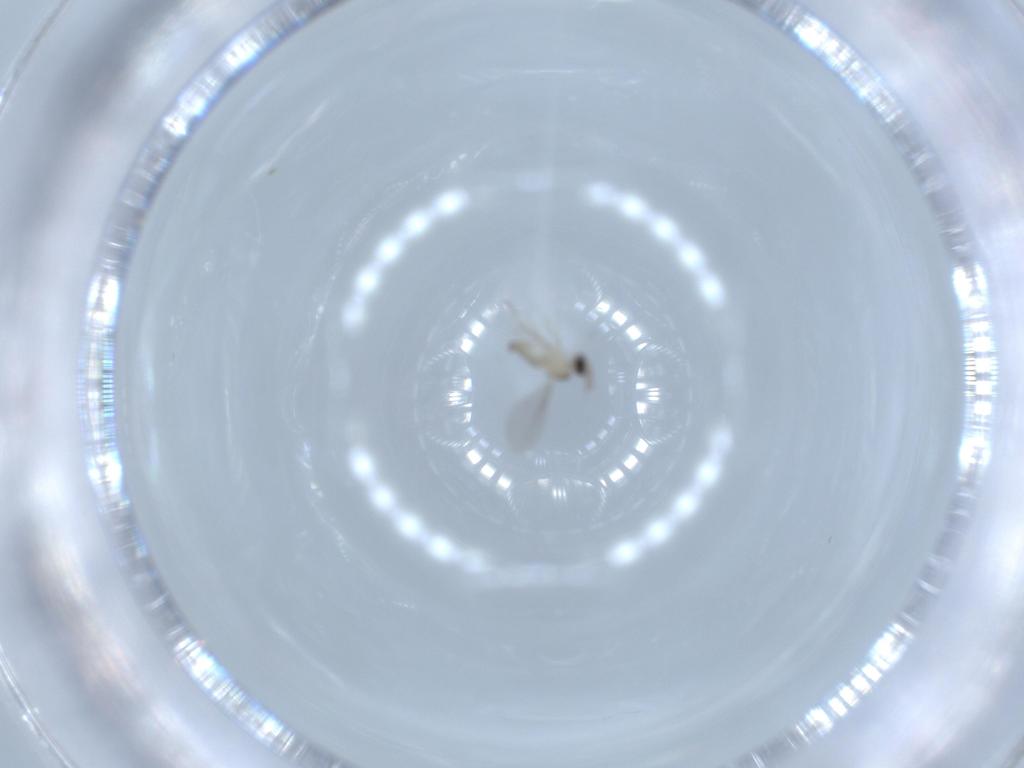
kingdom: Animalia
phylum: Arthropoda
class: Insecta
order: Diptera
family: Cecidomyiidae
